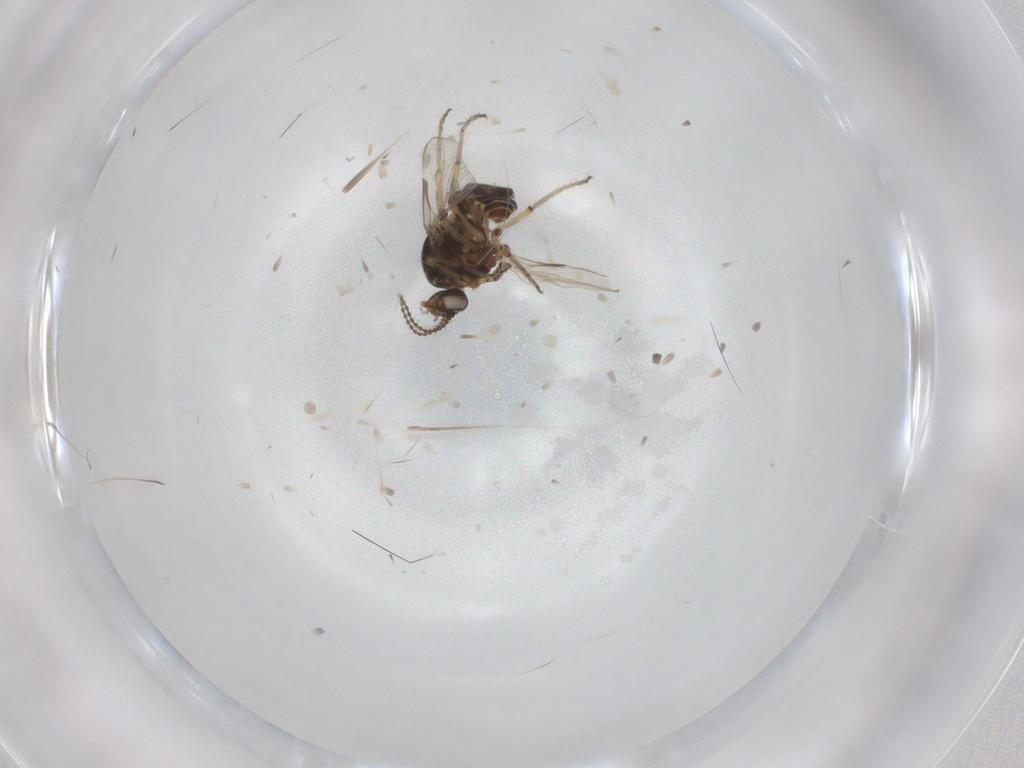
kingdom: Animalia
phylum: Arthropoda
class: Insecta
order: Diptera
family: Ceratopogonidae
